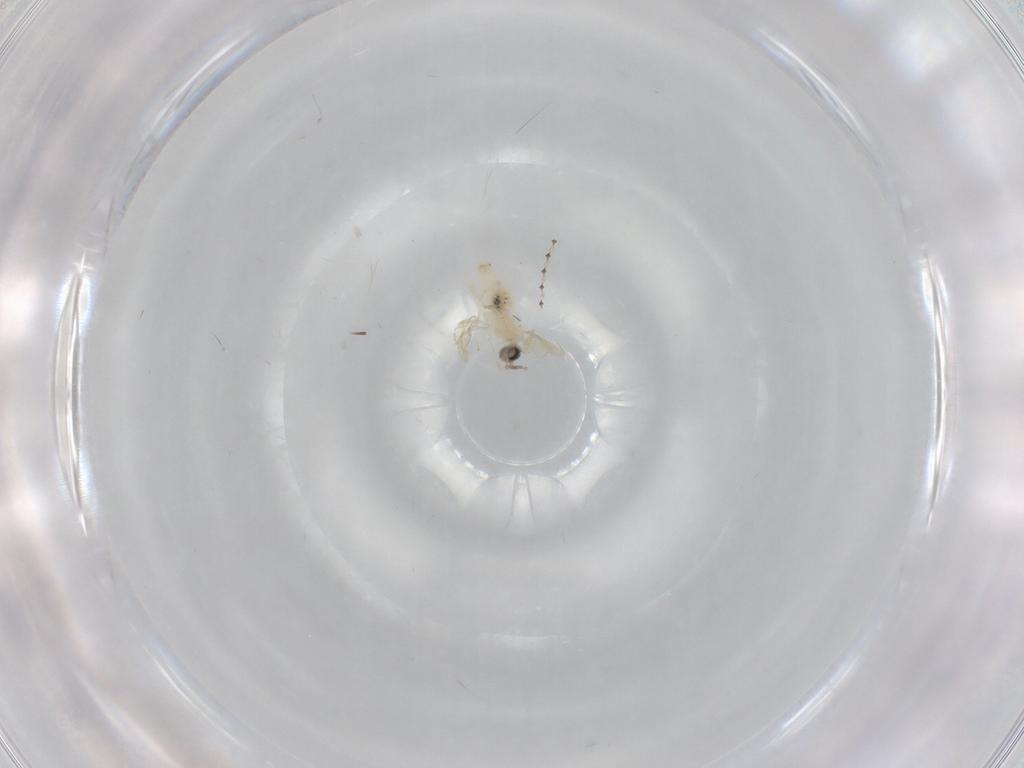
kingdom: Animalia
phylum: Arthropoda
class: Insecta
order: Diptera
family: Cecidomyiidae
